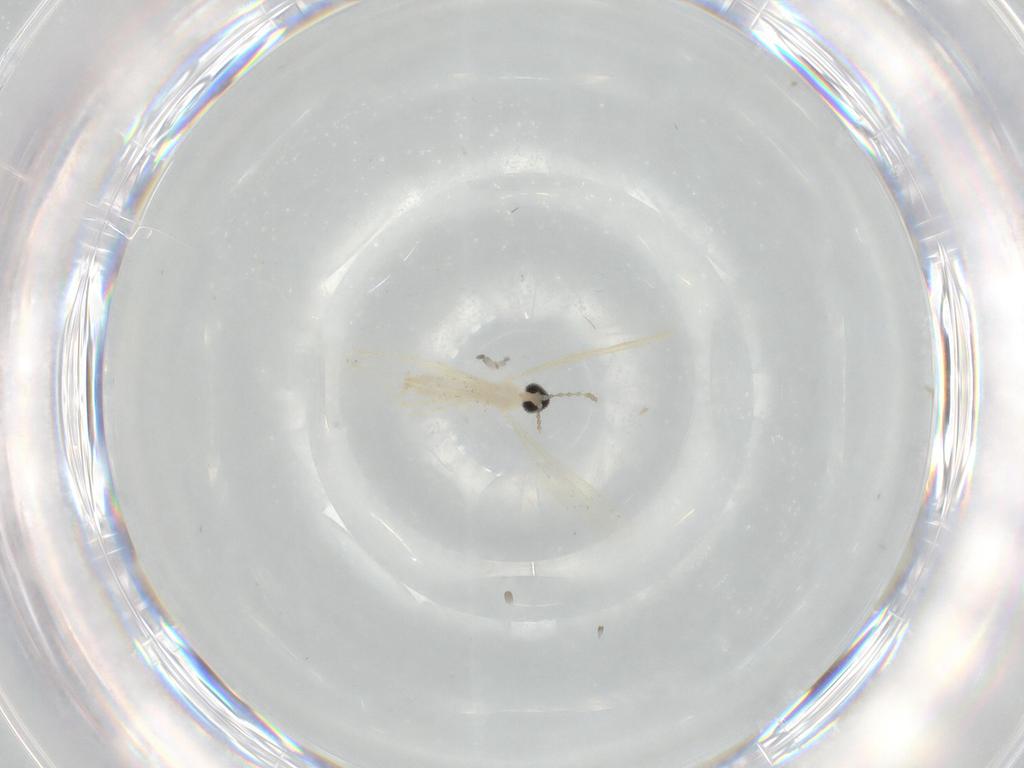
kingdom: Animalia
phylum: Arthropoda
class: Insecta
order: Diptera
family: Cecidomyiidae
